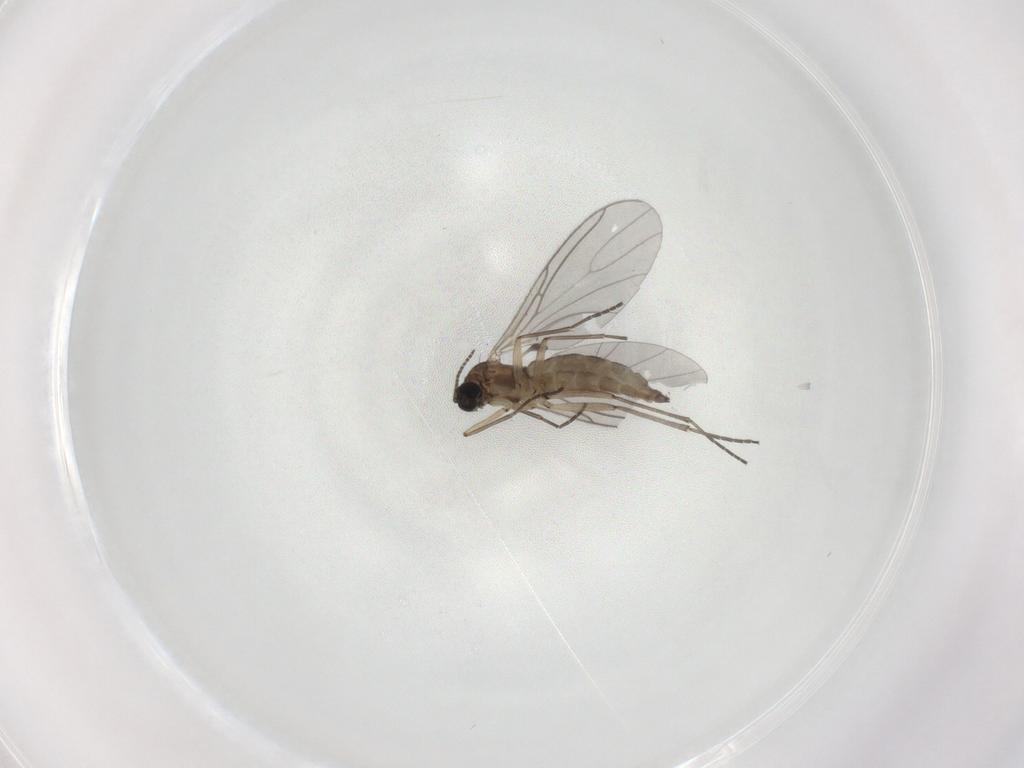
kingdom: Animalia
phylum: Arthropoda
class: Insecta
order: Diptera
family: Sciaridae
